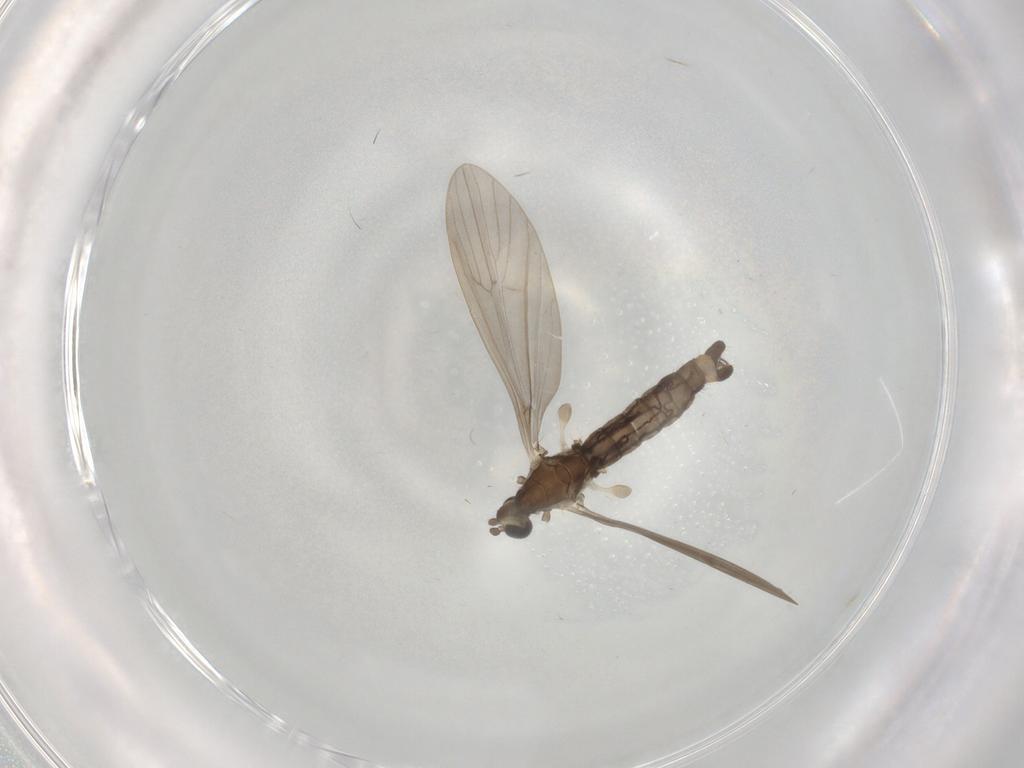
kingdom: Animalia
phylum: Arthropoda
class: Insecta
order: Diptera
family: Limoniidae
